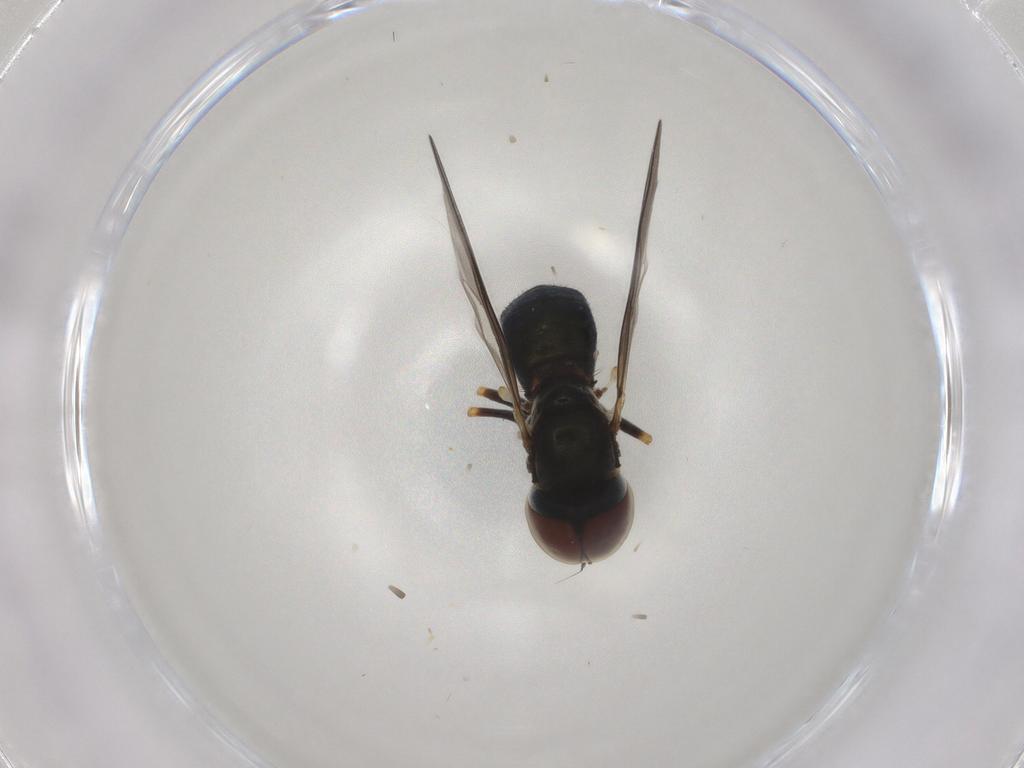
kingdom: Animalia
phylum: Arthropoda
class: Insecta
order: Diptera
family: Pipunculidae
